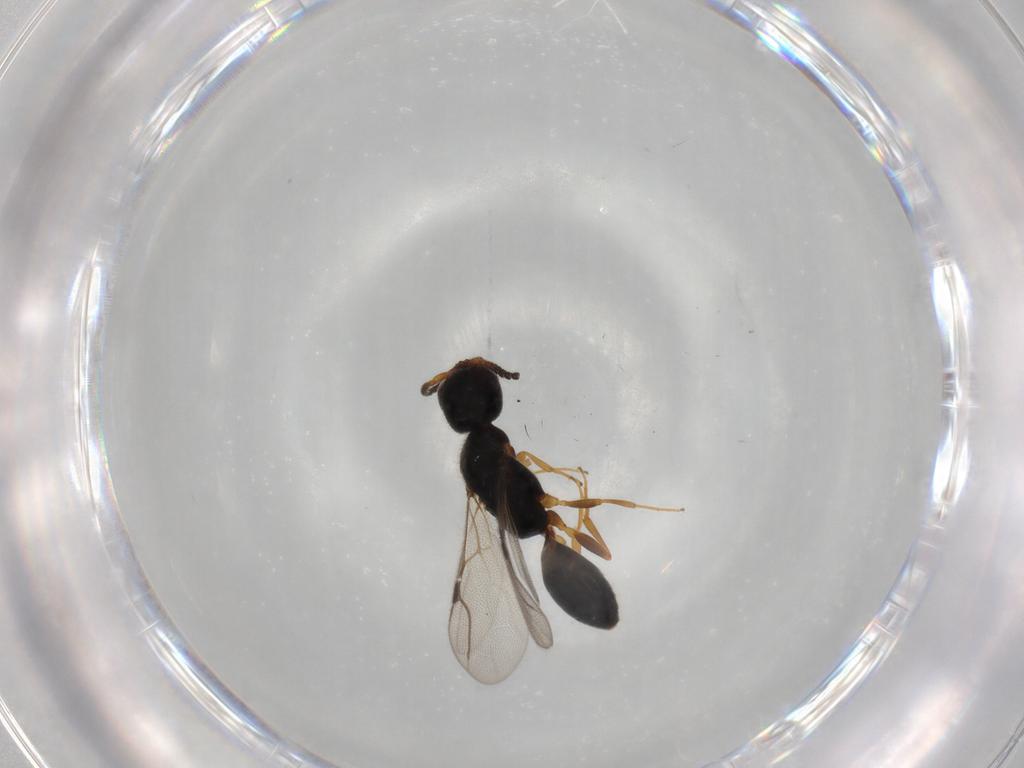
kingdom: Animalia
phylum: Arthropoda
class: Insecta
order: Hymenoptera
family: Bethylidae
